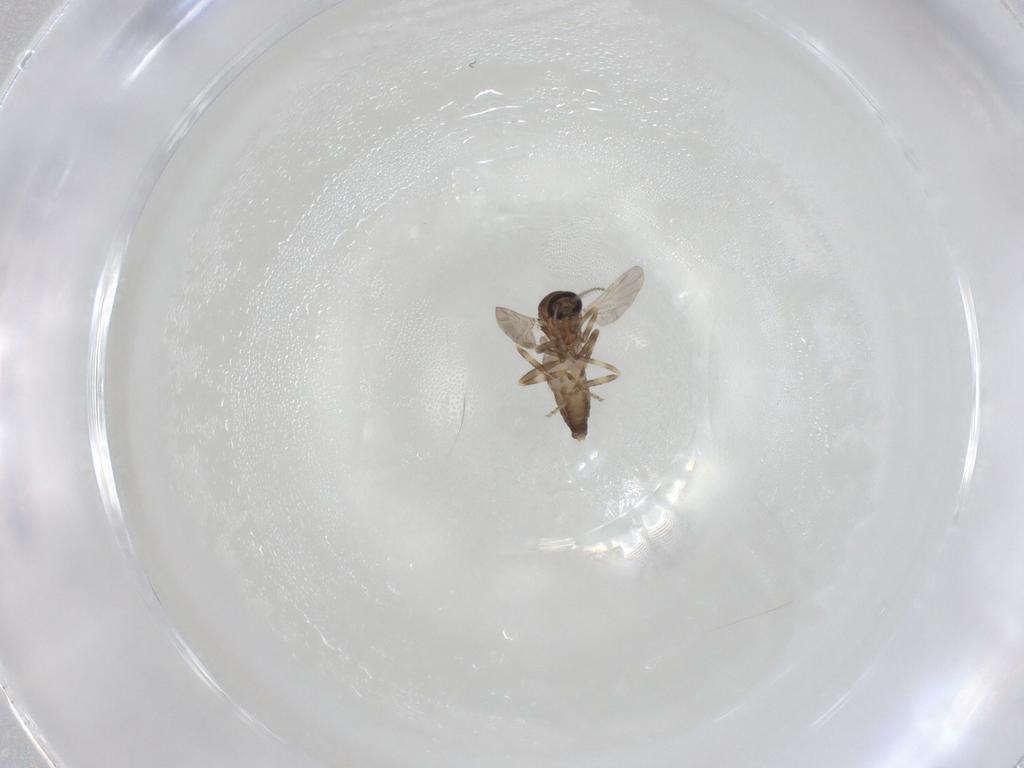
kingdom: Animalia
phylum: Arthropoda
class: Insecta
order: Diptera
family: Ceratopogonidae
